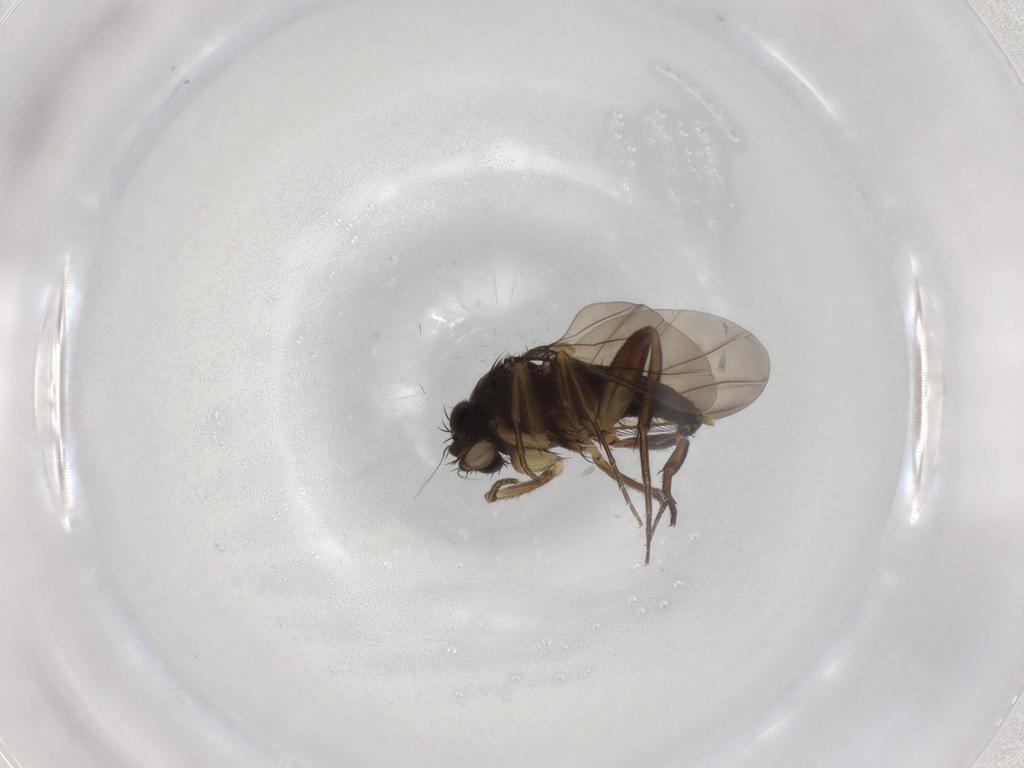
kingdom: Animalia
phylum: Arthropoda
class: Insecta
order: Diptera
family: Phoridae
